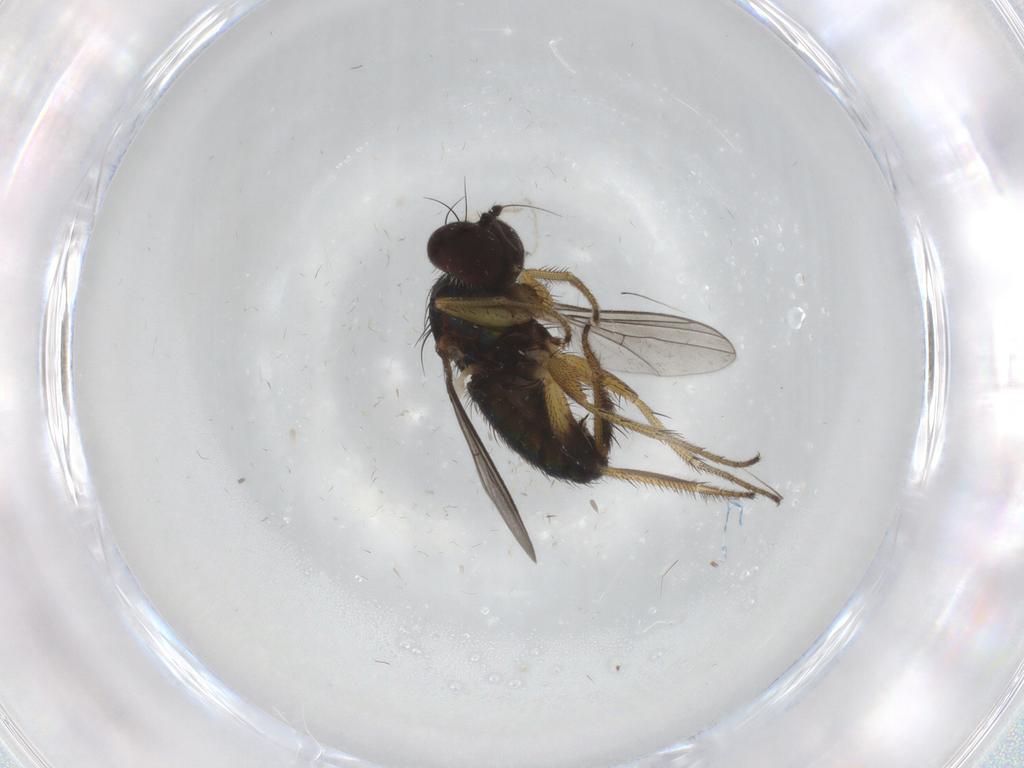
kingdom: Animalia
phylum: Arthropoda
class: Insecta
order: Diptera
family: Dolichopodidae
